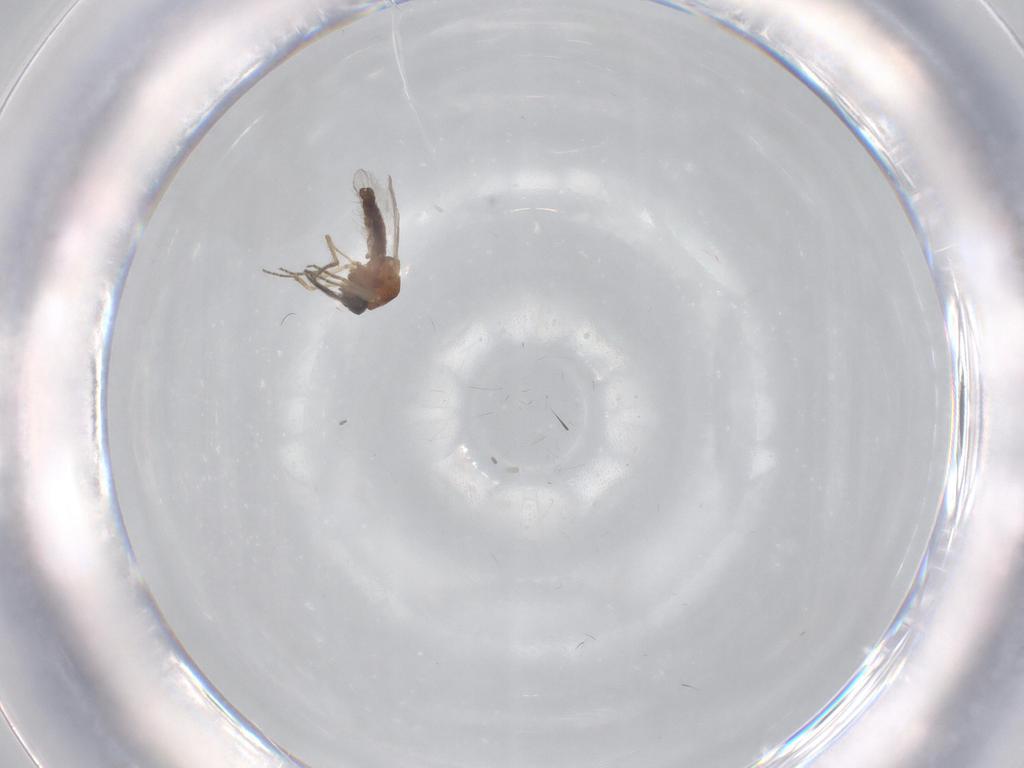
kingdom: Animalia
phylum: Arthropoda
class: Insecta
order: Diptera
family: Ceratopogonidae
